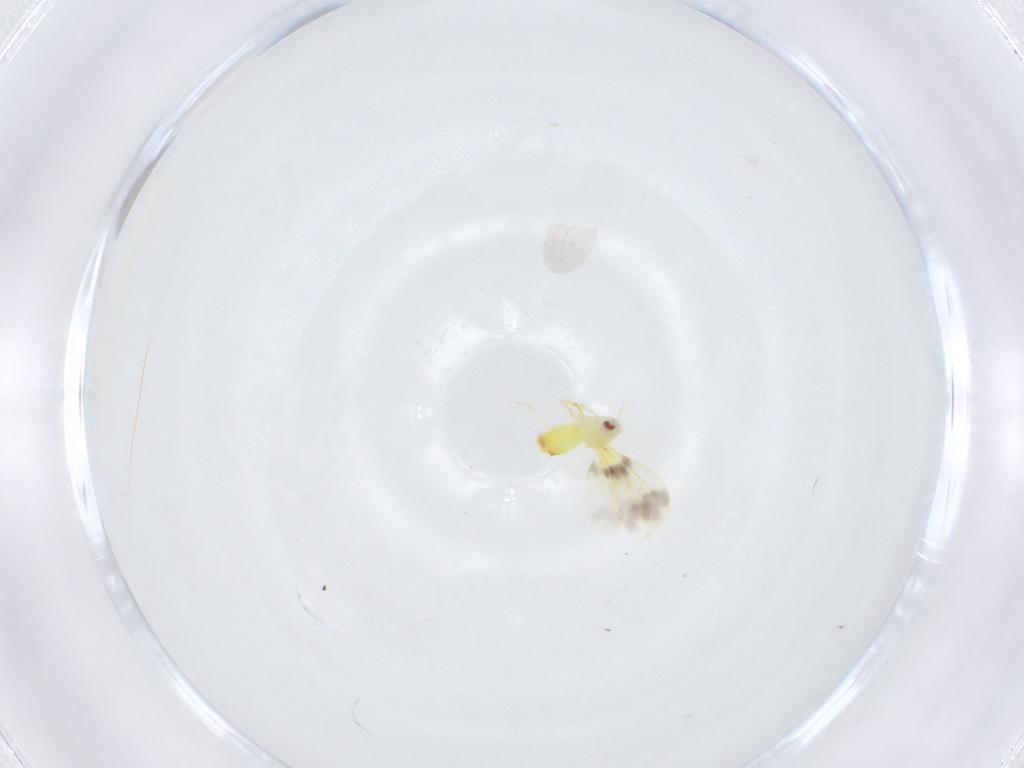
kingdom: Animalia
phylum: Arthropoda
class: Insecta
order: Hemiptera
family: Aleyrodidae
